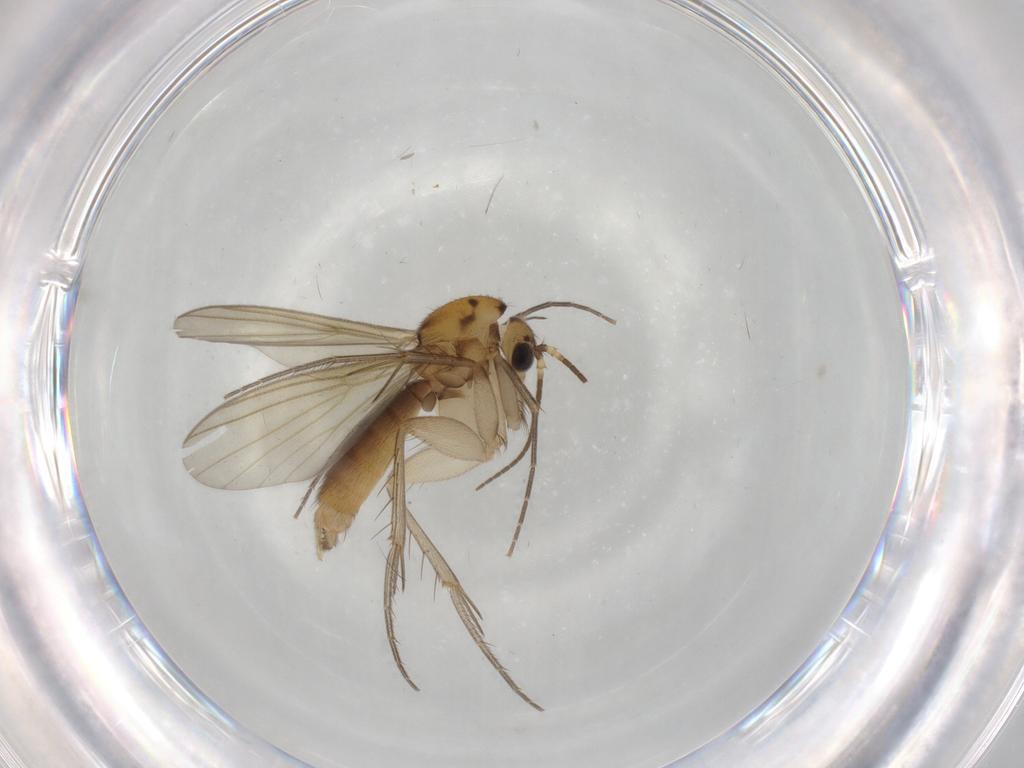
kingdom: Animalia
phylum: Arthropoda
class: Insecta
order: Diptera
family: Mycetophilidae
